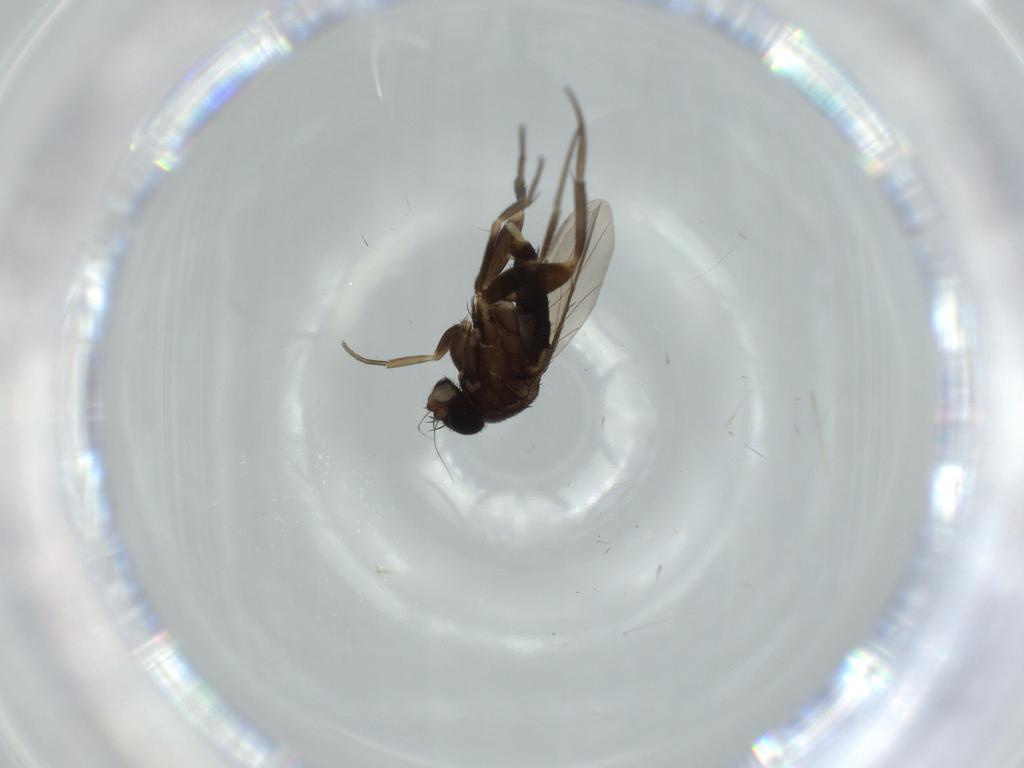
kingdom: Animalia
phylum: Arthropoda
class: Insecta
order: Diptera
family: Phoridae
